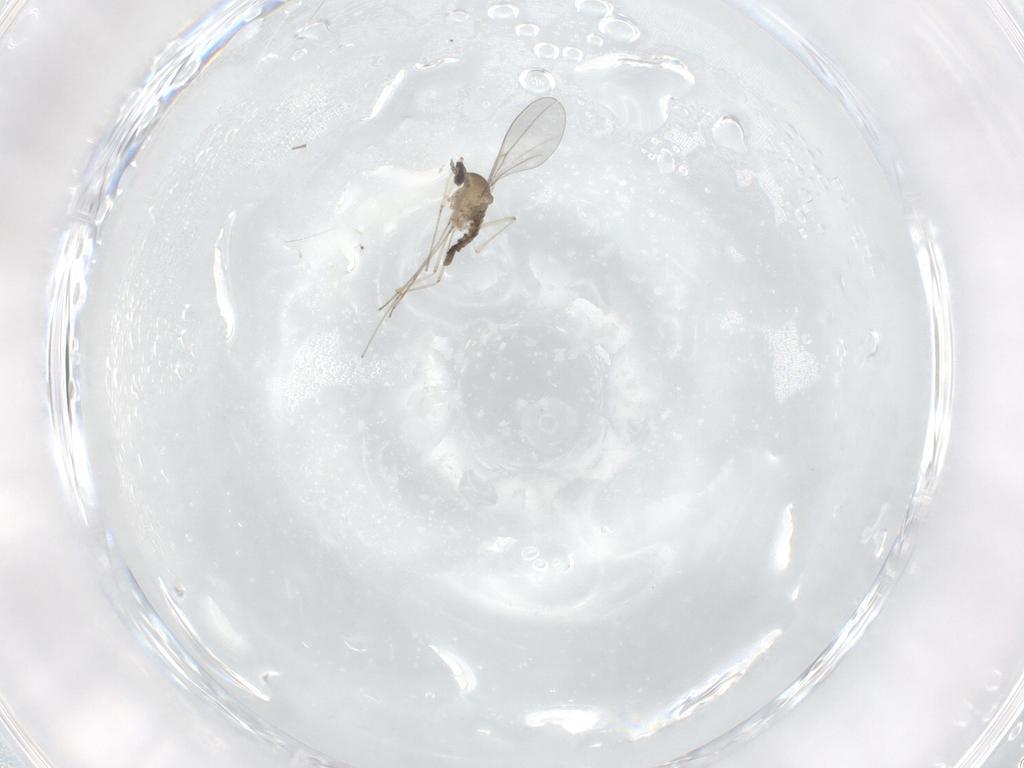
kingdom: Animalia
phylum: Arthropoda
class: Insecta
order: Diptera
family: Cecidomyiidae
